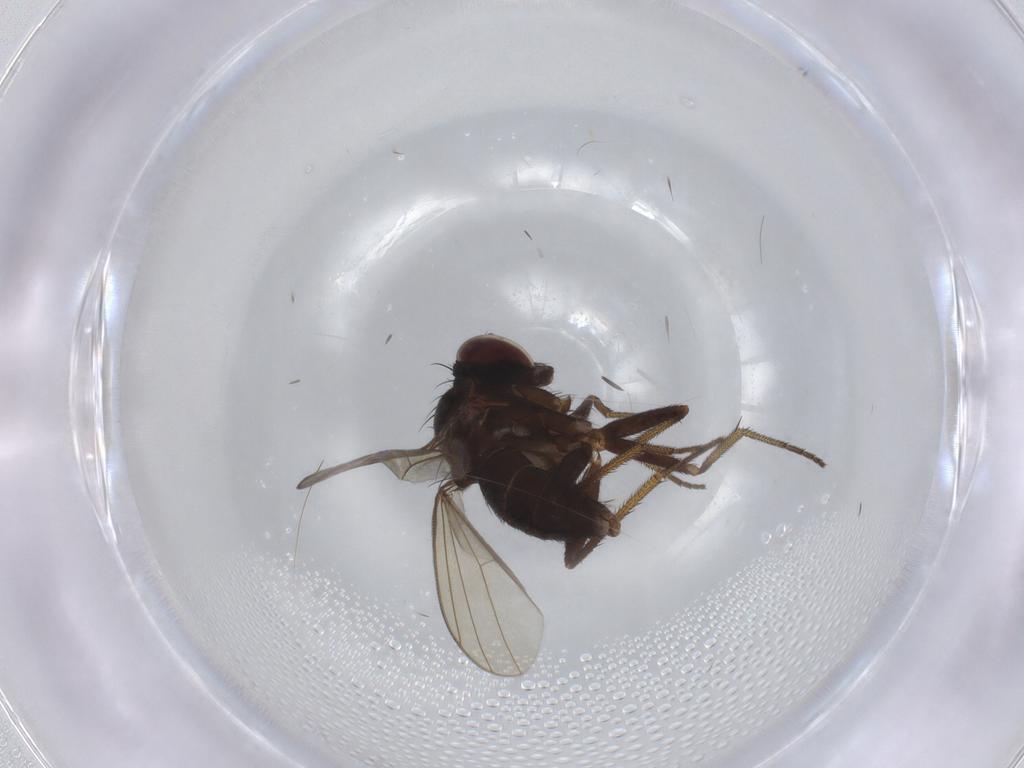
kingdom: Animalia
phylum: Arthropoda
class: Insecta
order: Diptera
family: Dolichopodidae
